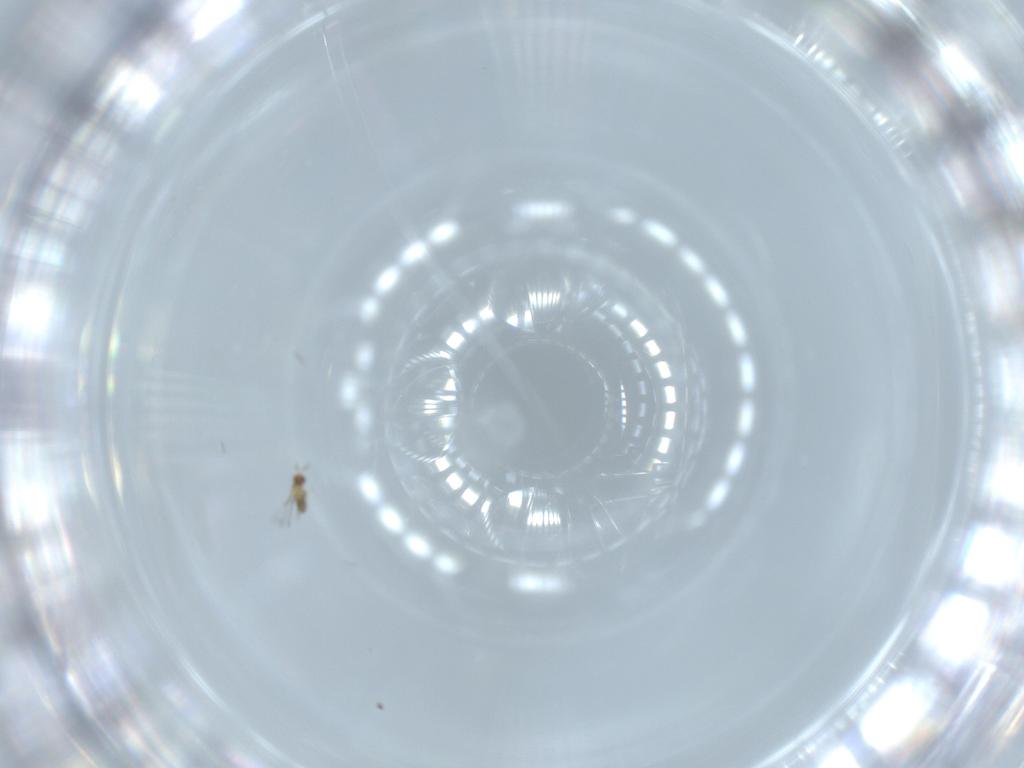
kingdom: Animalia
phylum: Arthropoda
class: Insecta
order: Hymenoptera
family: Trichogrammatidae
